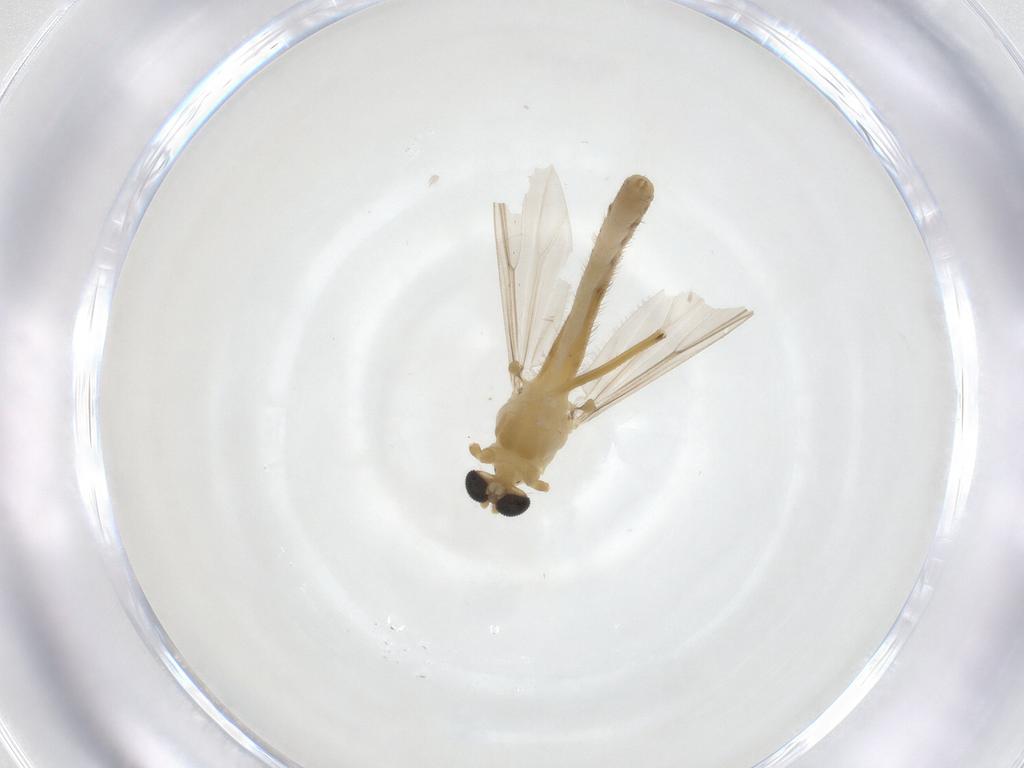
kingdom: Animalia
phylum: Arthropoda
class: Insecta
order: Diptera
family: Chironomidae
